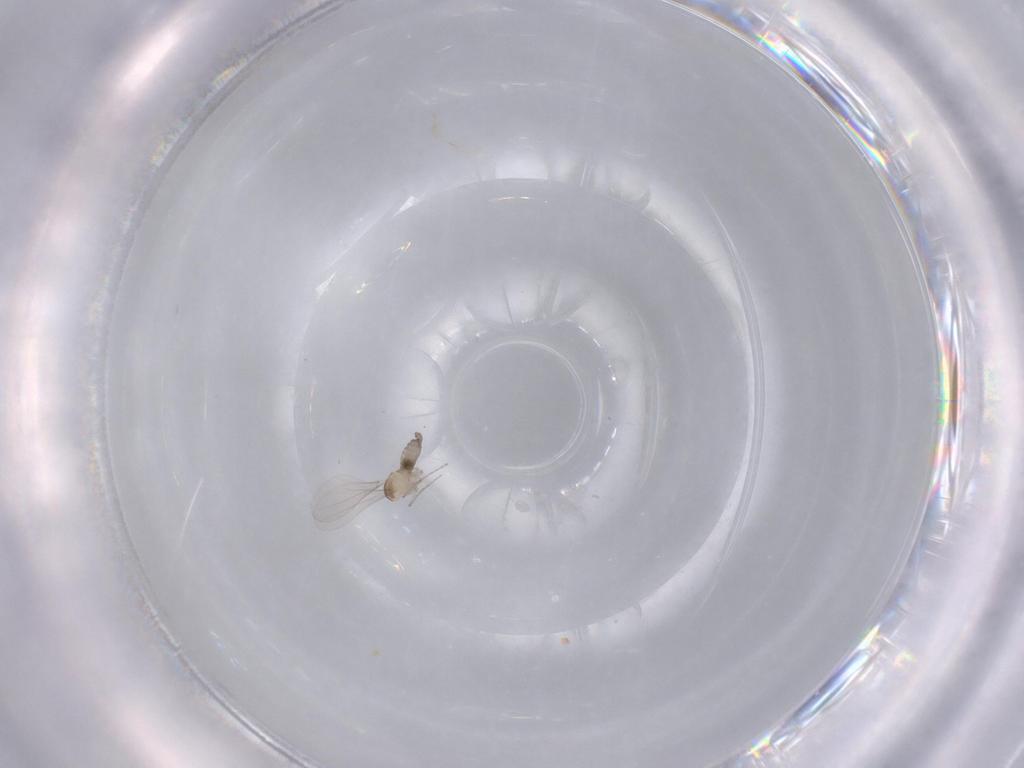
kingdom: Animalia
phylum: Arthropoda
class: Insecta
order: Diptera
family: Cecidomyiidae
